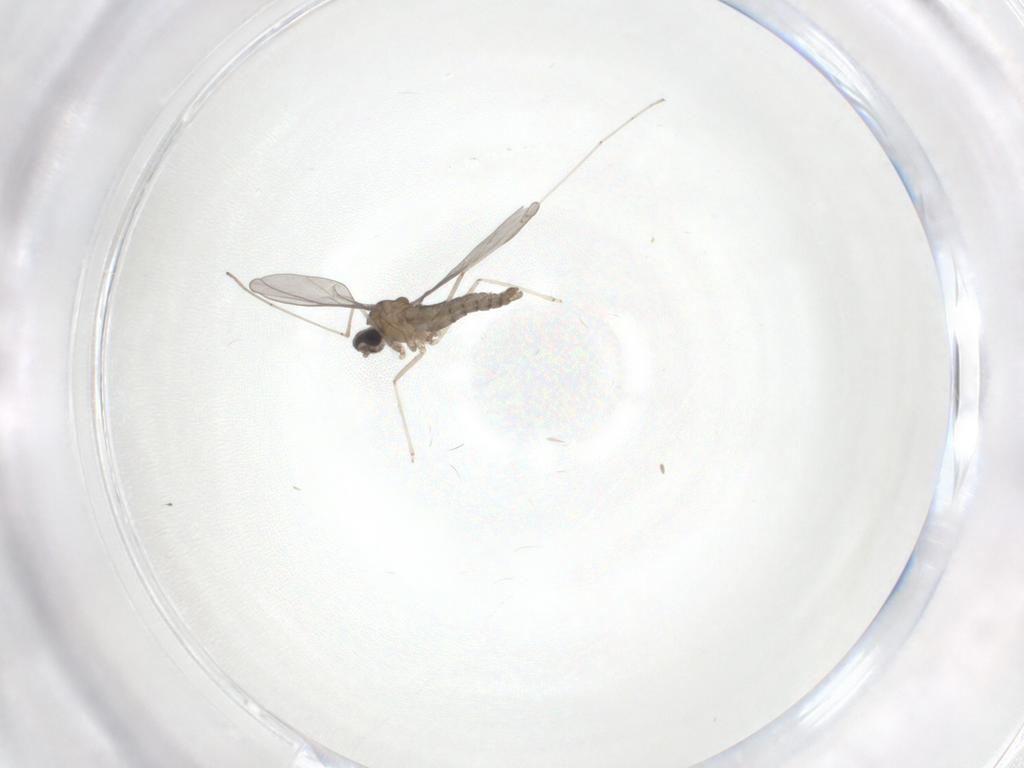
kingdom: Animalia
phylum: Arthropoda
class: Insecta
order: Diptera
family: Cecidomyiidae
